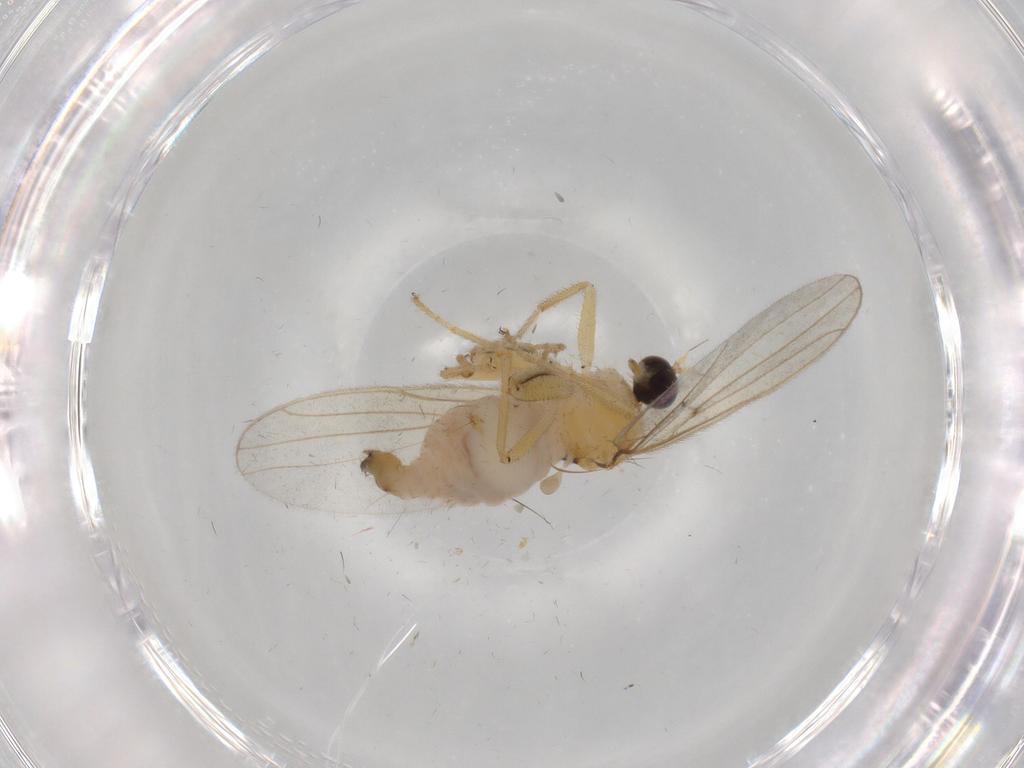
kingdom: Animalia
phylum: Arthropoda
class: Insecta
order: Diptera
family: Hybotidae
